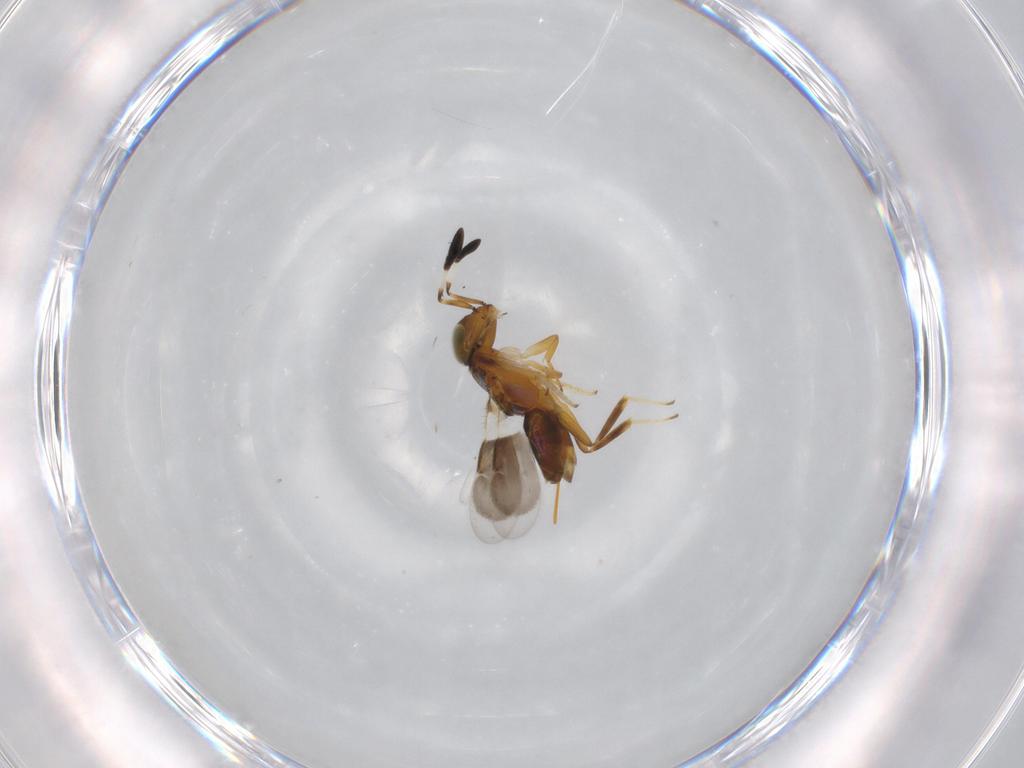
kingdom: Animalia
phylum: Arthropoda
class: Insecta
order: Hymenoptera
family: Encyrtidae
